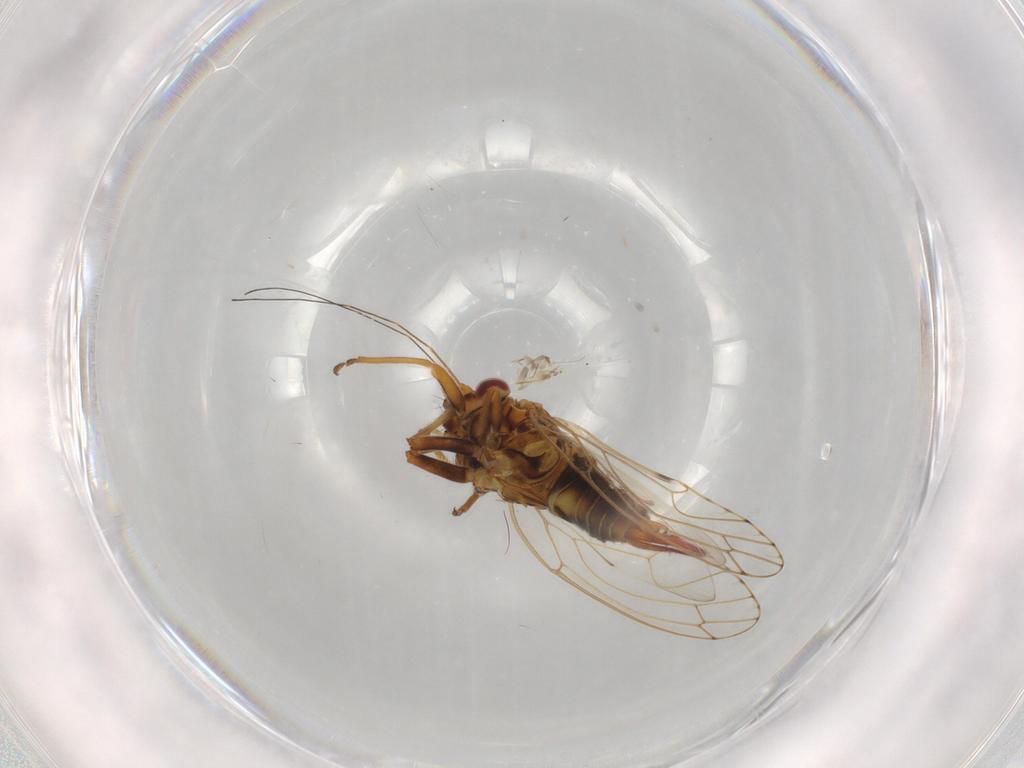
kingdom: Animalia
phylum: Arthropoda
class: Insecta
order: Hemiptera
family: Psylloidea_incertae_sedis
